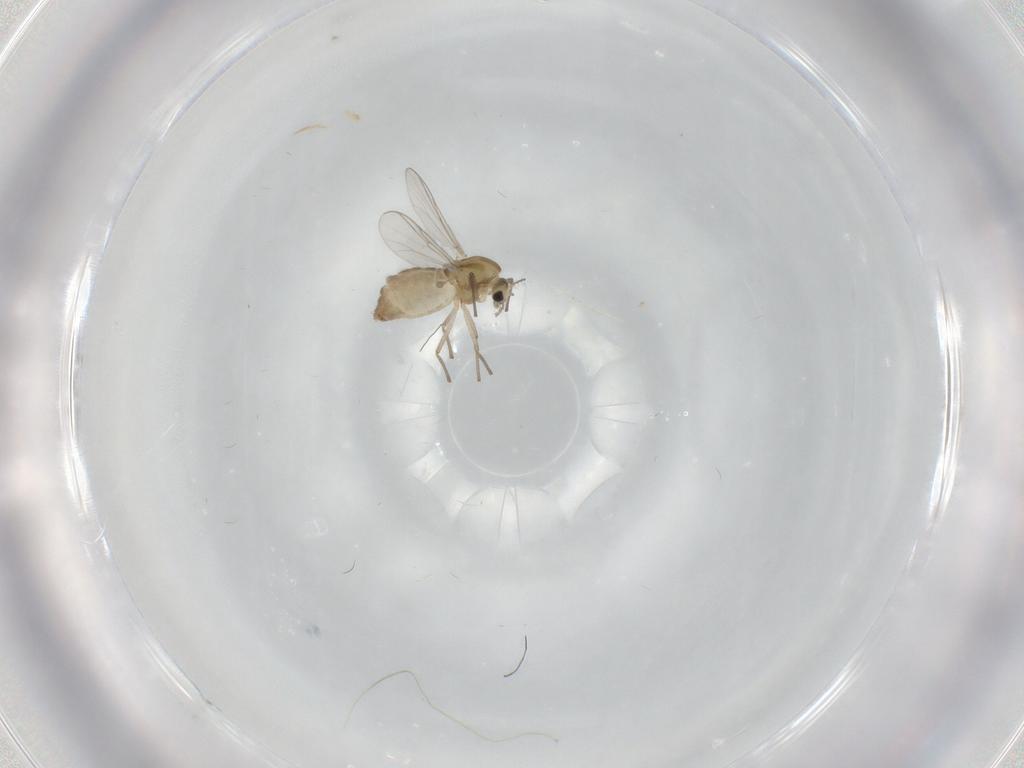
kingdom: Animalia
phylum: Arthropoda
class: Insecta
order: Diptera
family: Chironomidae
